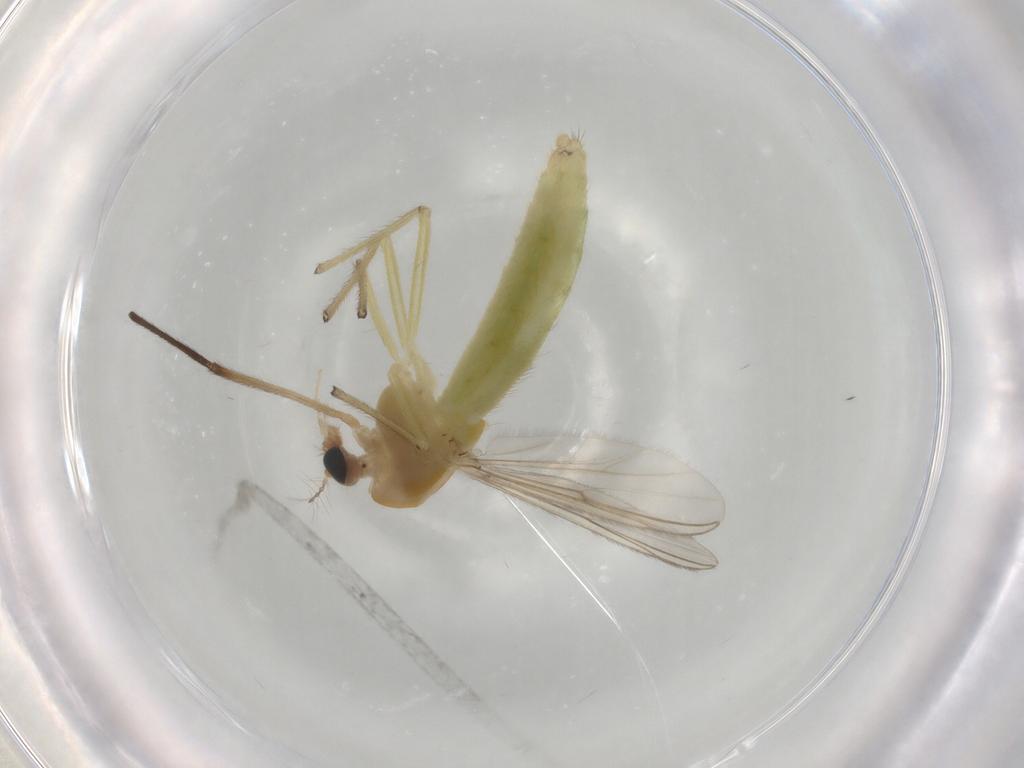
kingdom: Animalia
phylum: Arthropoda
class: Insecta
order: Diptera
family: Chironomidae
